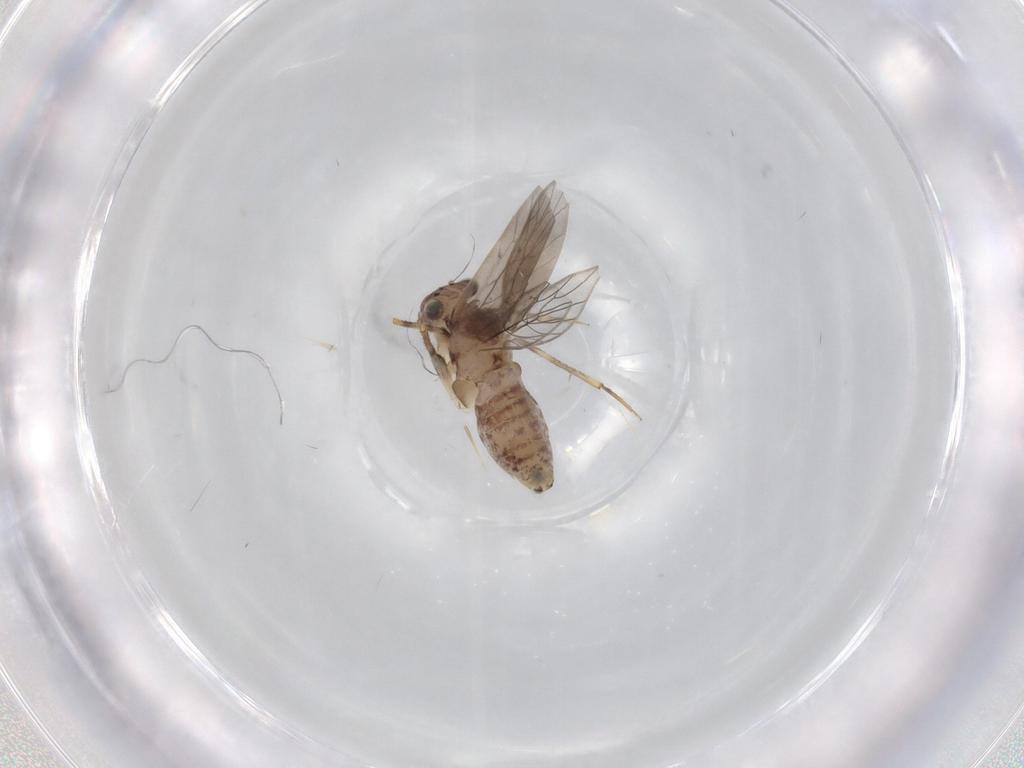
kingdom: Animalia
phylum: Arthropoda
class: Insecta
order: Psocodea
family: Lepidopsocidae
